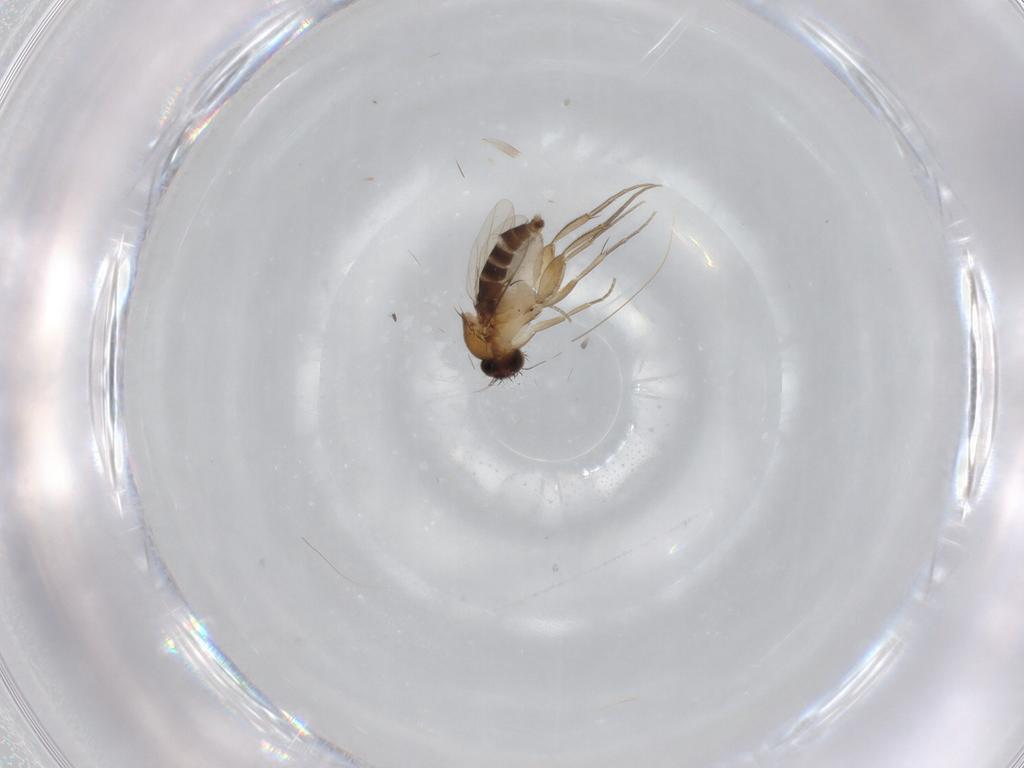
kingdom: Animalia
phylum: Arthropoda
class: Insecta
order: Diptera
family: Phoridae
